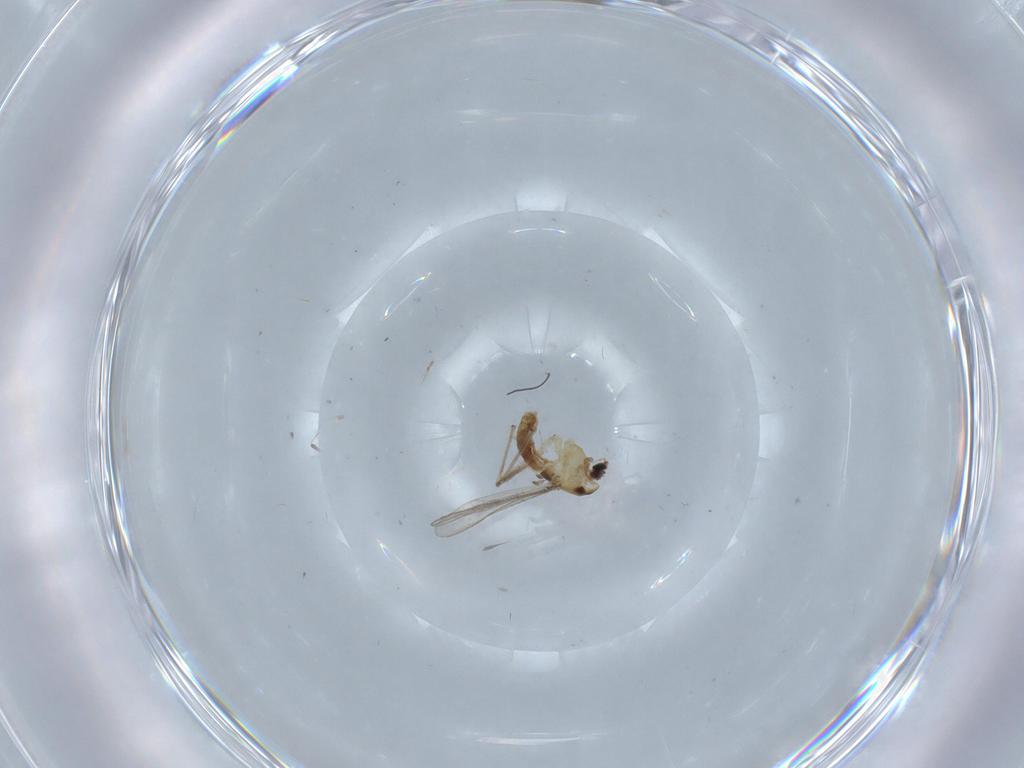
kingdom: Animalia
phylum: Arthropoda
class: Insecta
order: Diptera
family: Chironomidae
